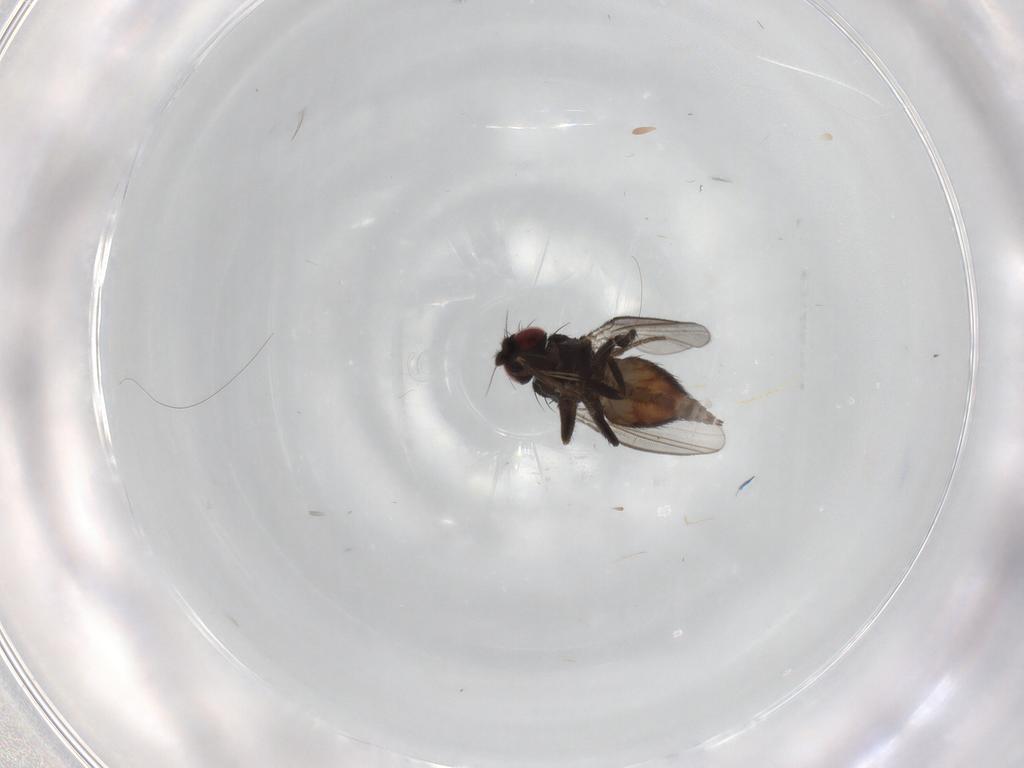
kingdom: Animalia
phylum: Arthropoda
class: Insecta
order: Diptera
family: Milichiidae
